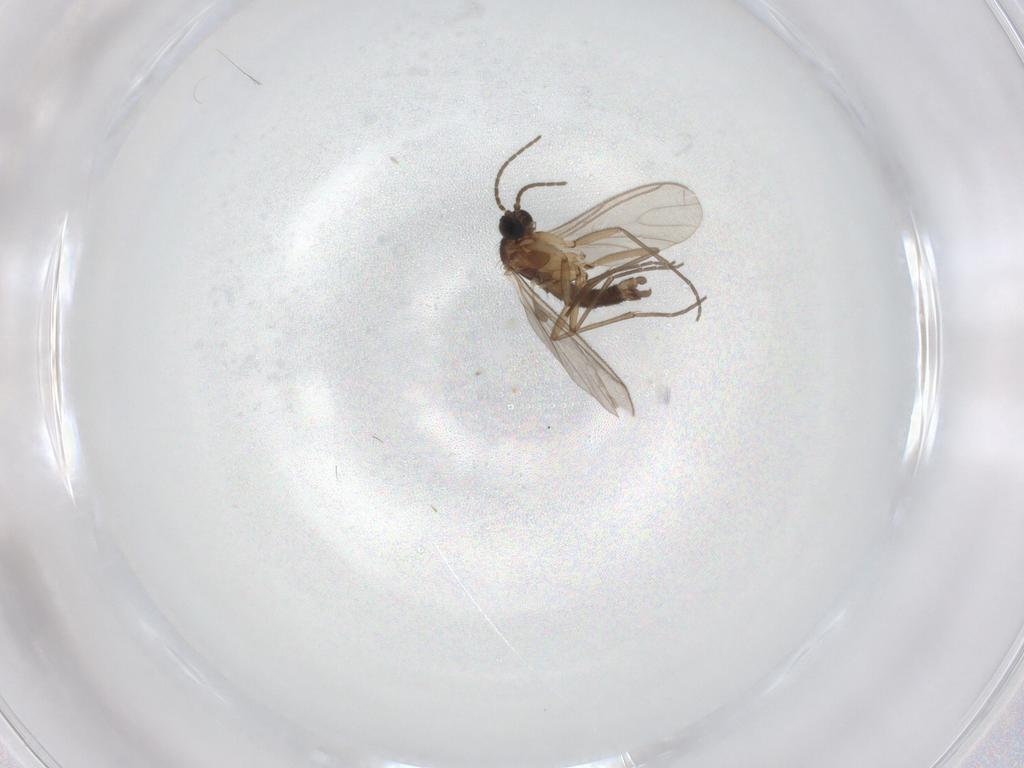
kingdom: Animalia
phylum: Arthropoda
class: Insecta
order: Diptera
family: Sciaridae
